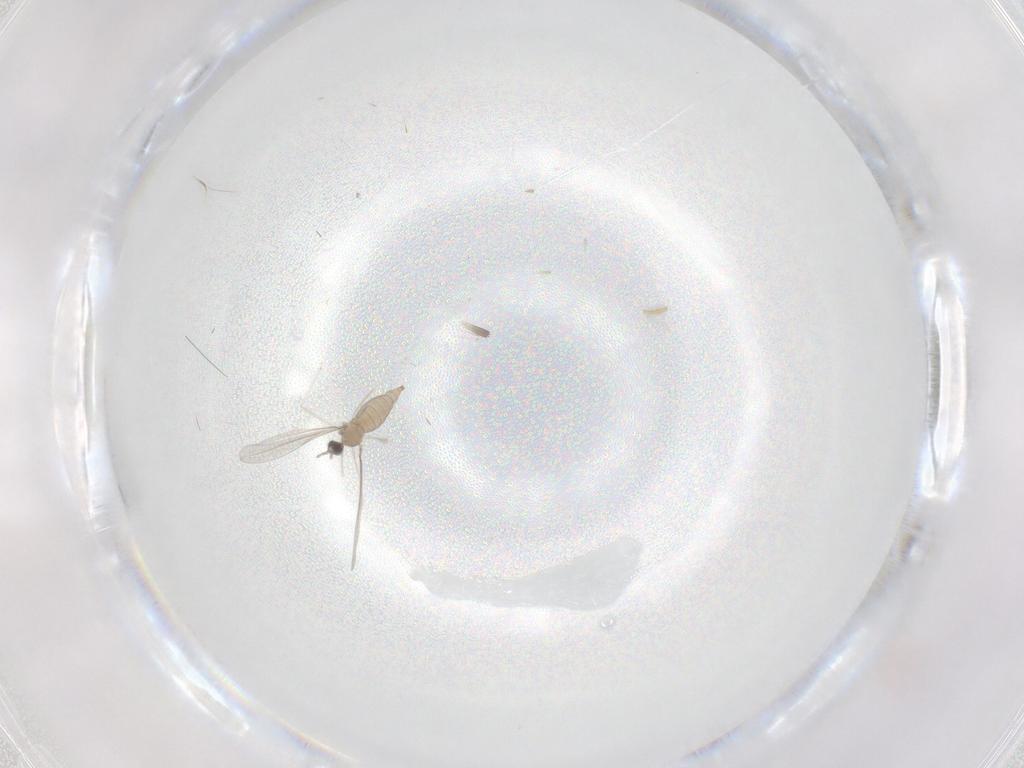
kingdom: Animalia
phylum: Arthropoda
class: Insecta
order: Diptera
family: Cecidomyiidae
